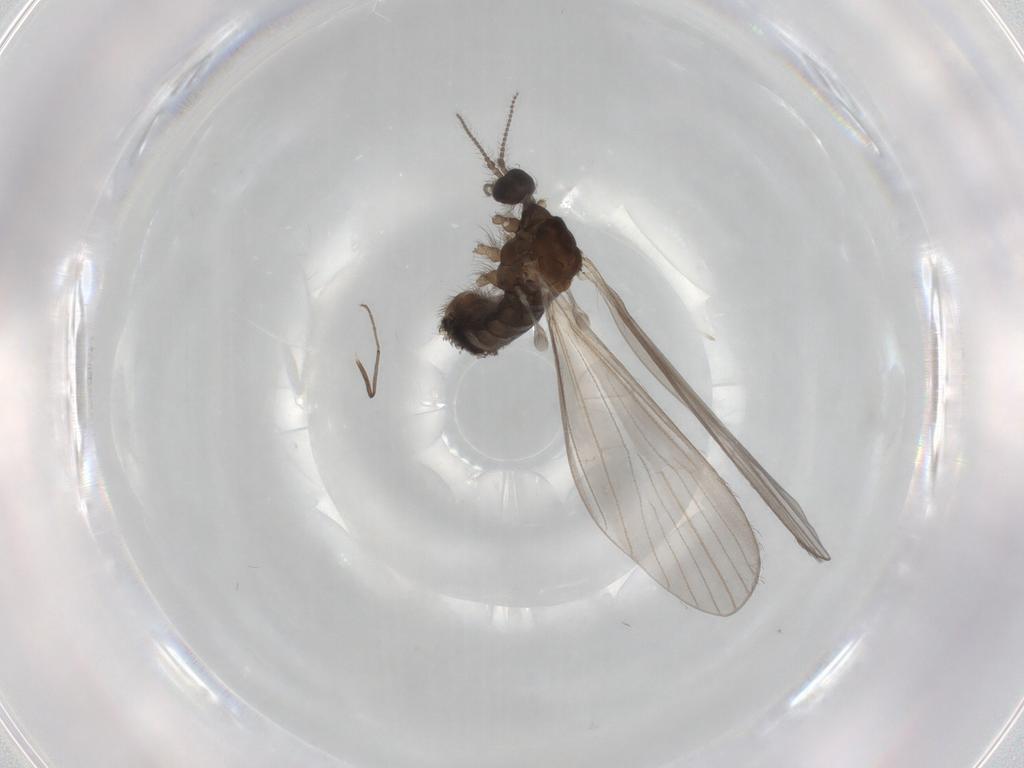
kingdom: Animalia
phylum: Arthropoda
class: Insecta
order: Diptera
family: Limoniidae
